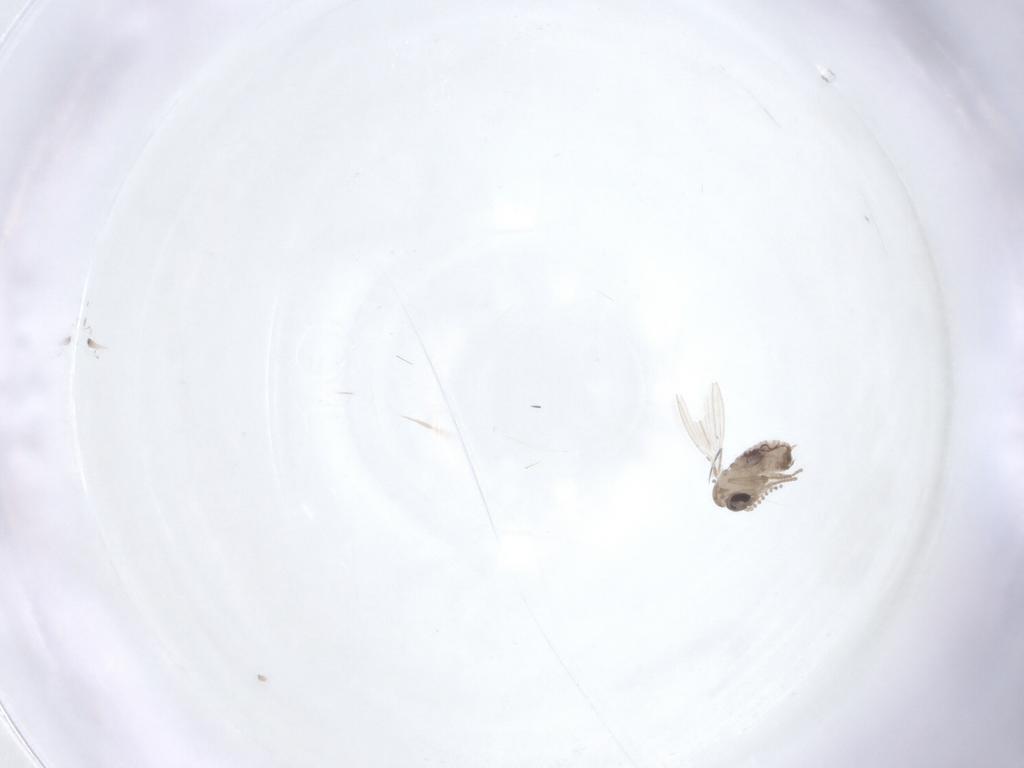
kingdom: Animalia
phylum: Arthropoda
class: Insecta
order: Diptera
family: Psychodidae
